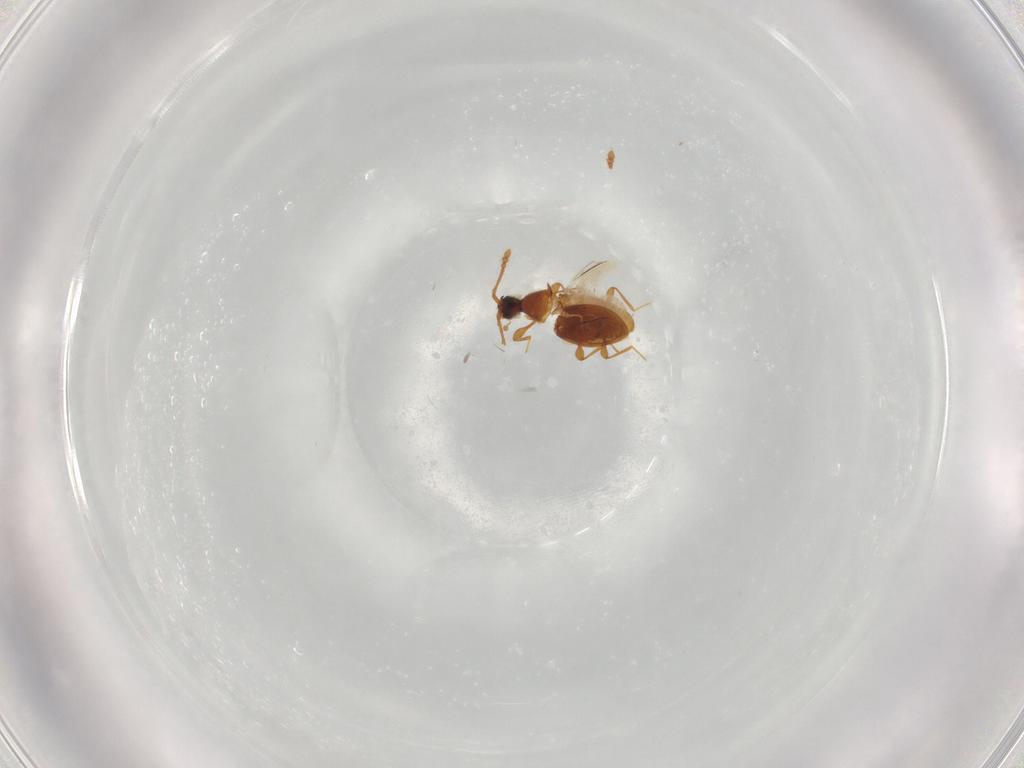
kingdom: Animalia
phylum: Arthropoda
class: Insecta
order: Coleoptera
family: Staphylinidae
